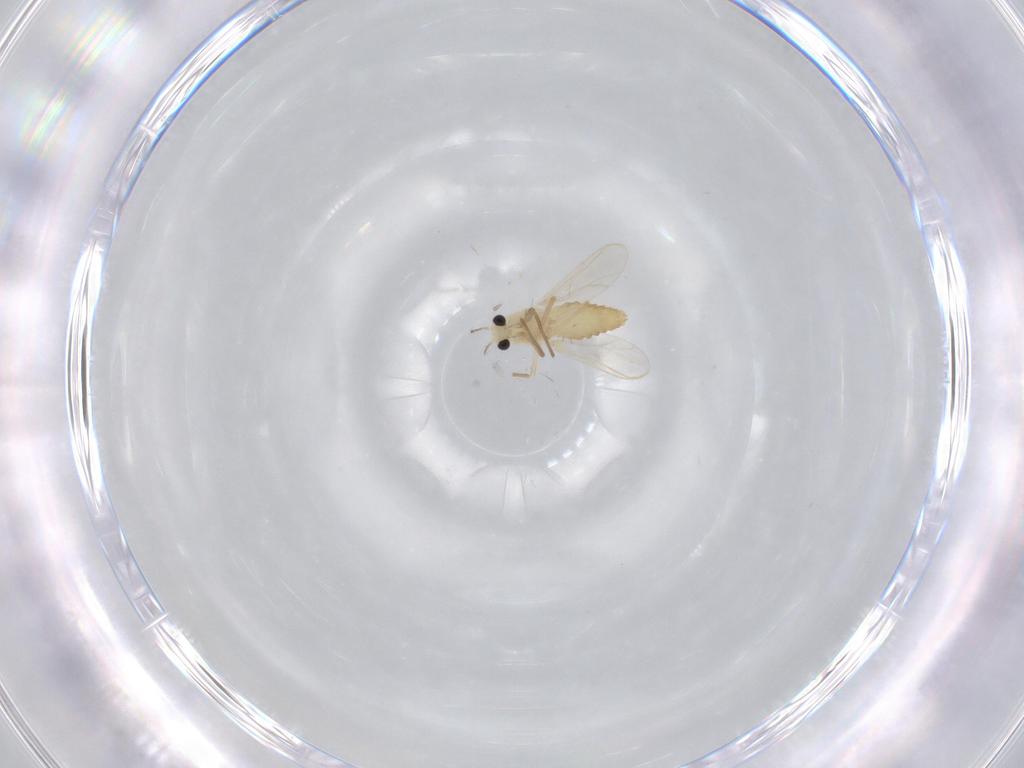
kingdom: Animalia
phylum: Arthropoda
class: Insecta
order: Diptera
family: Chironomidae
